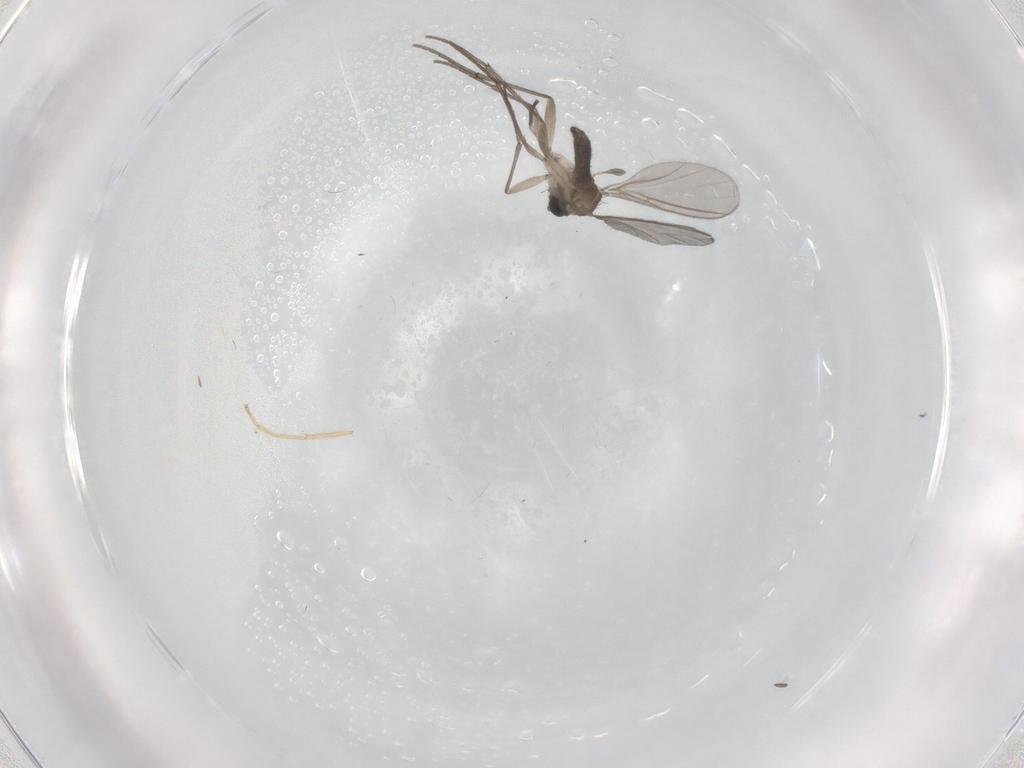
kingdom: Animalia
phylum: Arthropoda
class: Insecta
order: Diptera
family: Sciaridae
